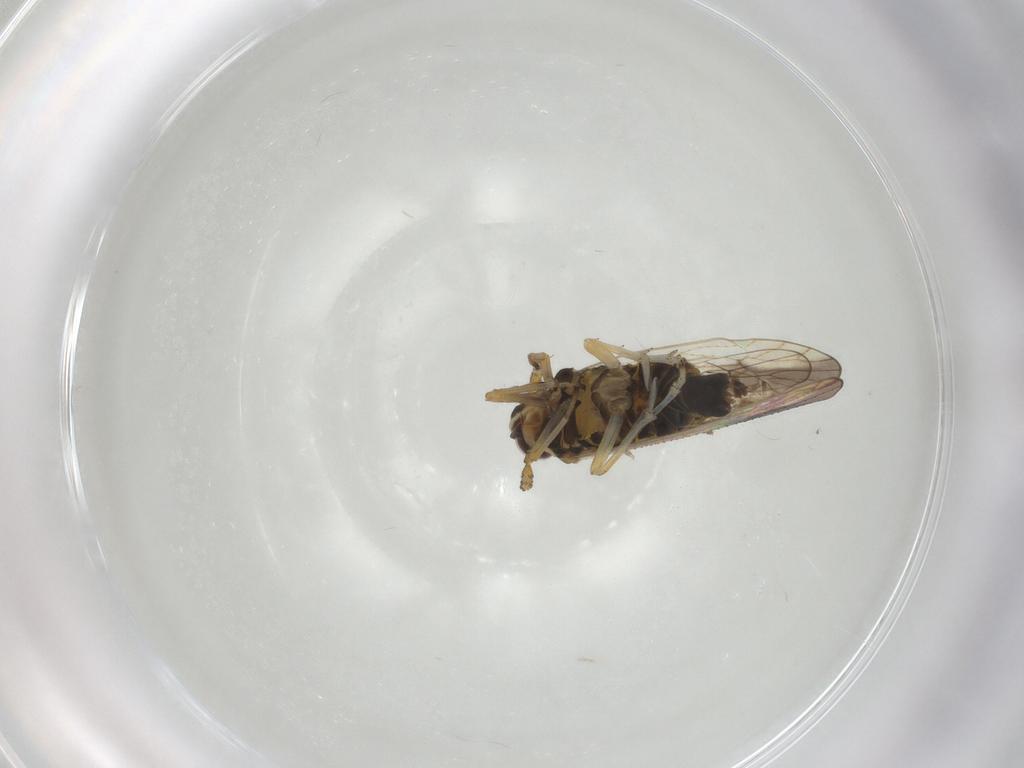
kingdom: Animalia
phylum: Arthropoda
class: Insecta
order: Hemiptera
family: Delphacidae
